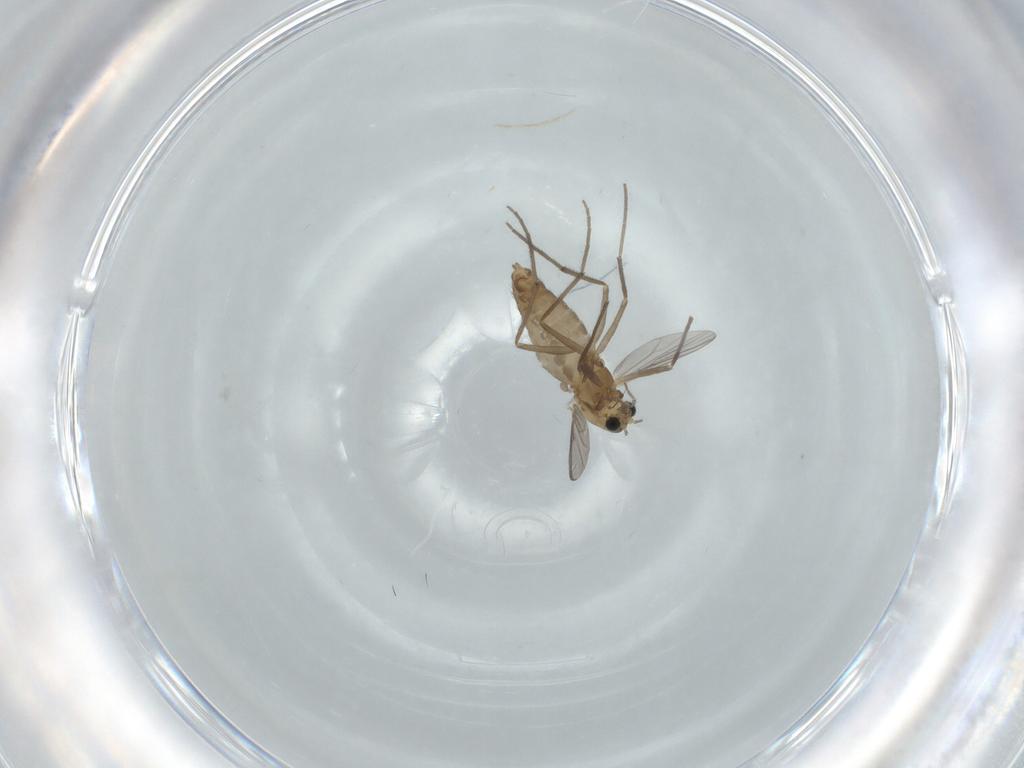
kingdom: Animalia
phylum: Arthropoda
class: Insecta
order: Diptera
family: Chironomidae
